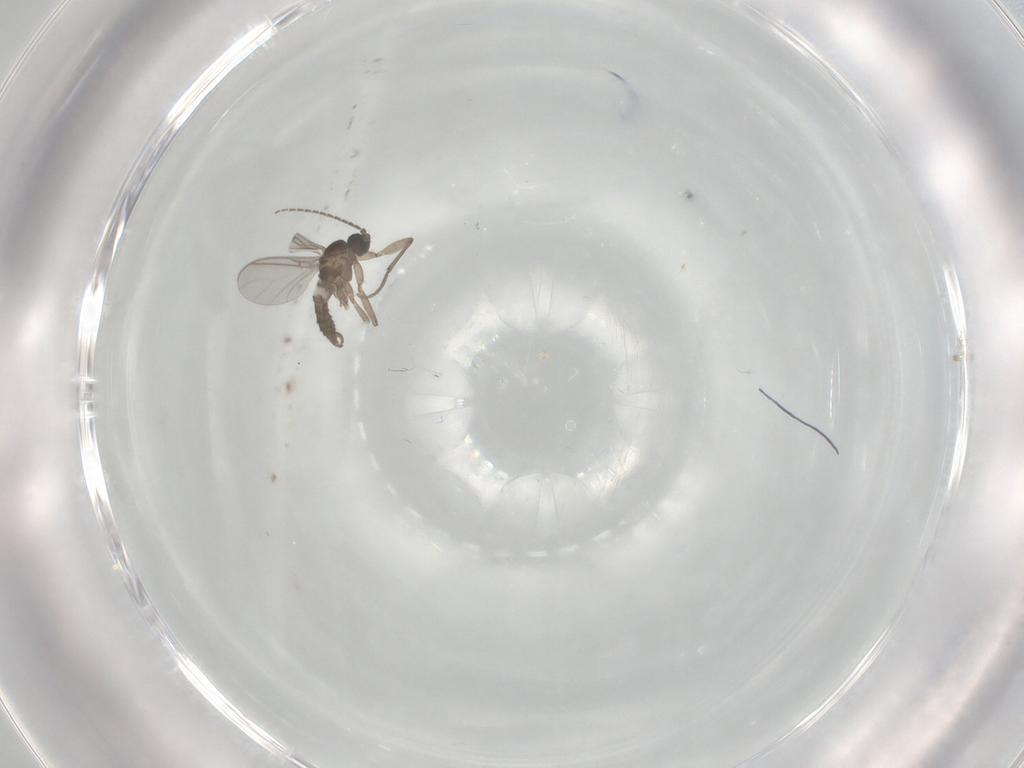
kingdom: Animalia
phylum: Arthropoda
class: Insecta
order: Diptera
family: Sciaridae
